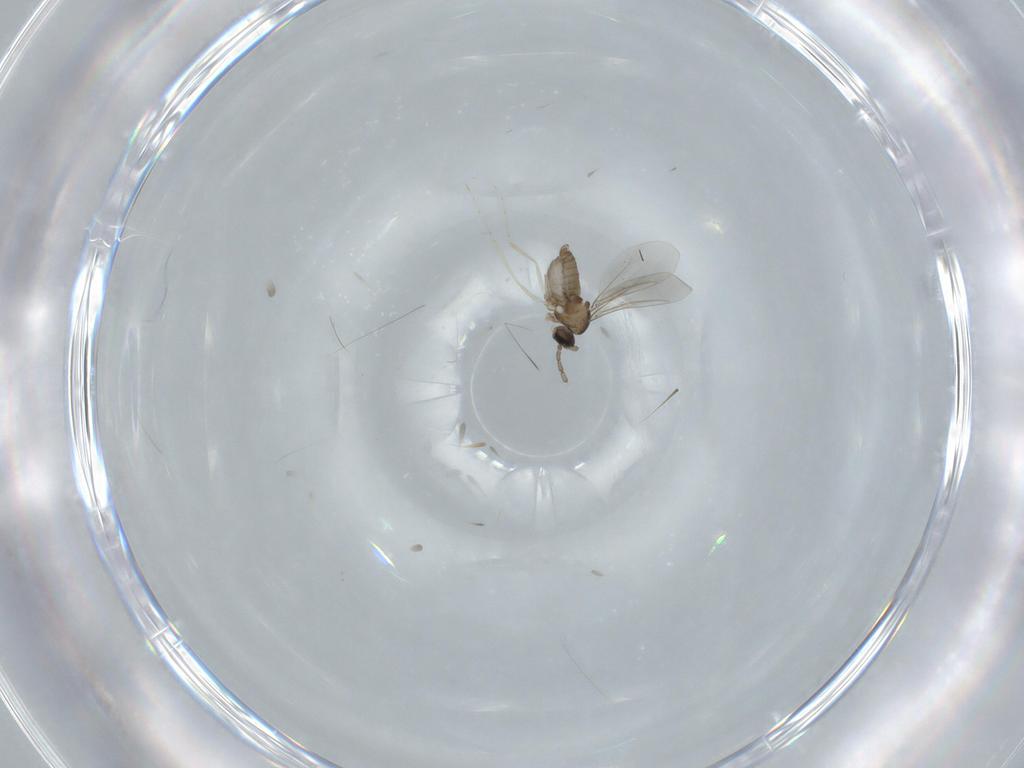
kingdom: Animalia
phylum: Arthropoda
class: Insecta
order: Diptera
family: Cecidomyiidae
